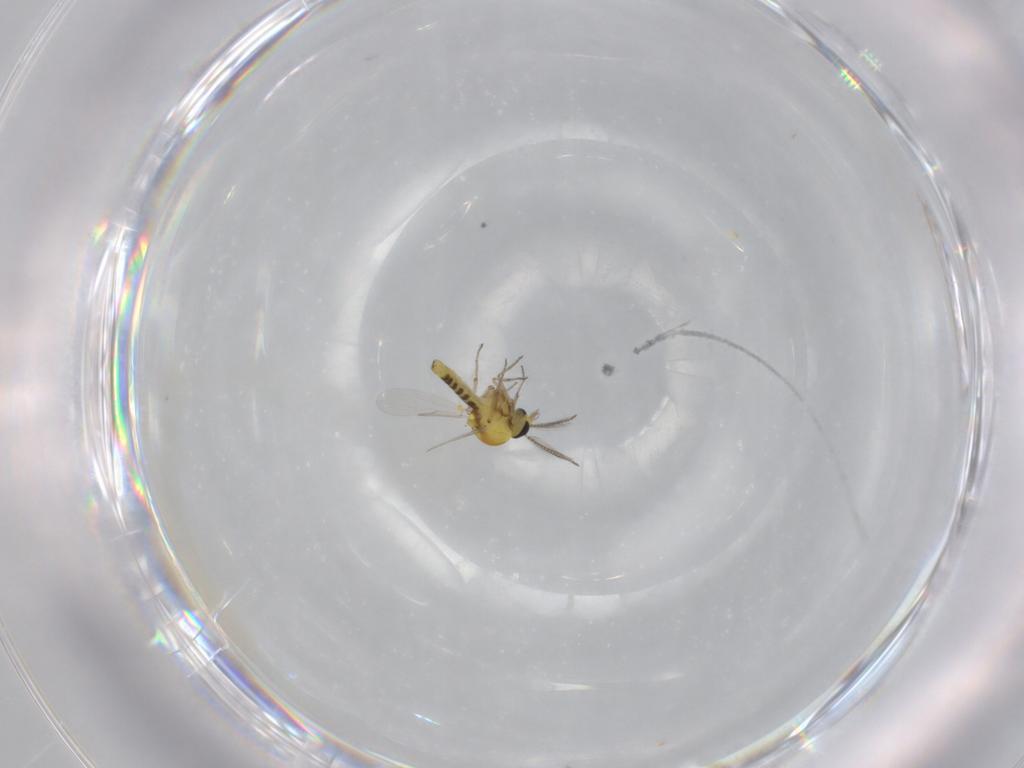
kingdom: Animalia
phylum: Arthropoda
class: Insecta
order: Diptera
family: Ceratopogonidae
